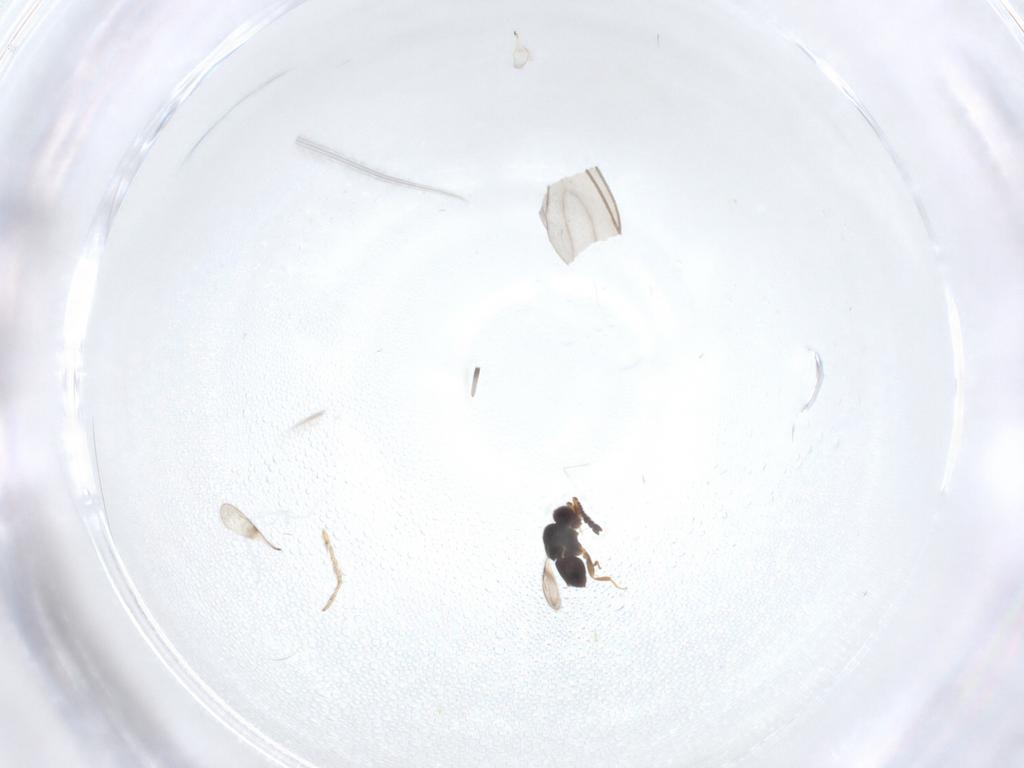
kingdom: Animalia
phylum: Arthropoda
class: Insecta
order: Diptera
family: Sciaridae
